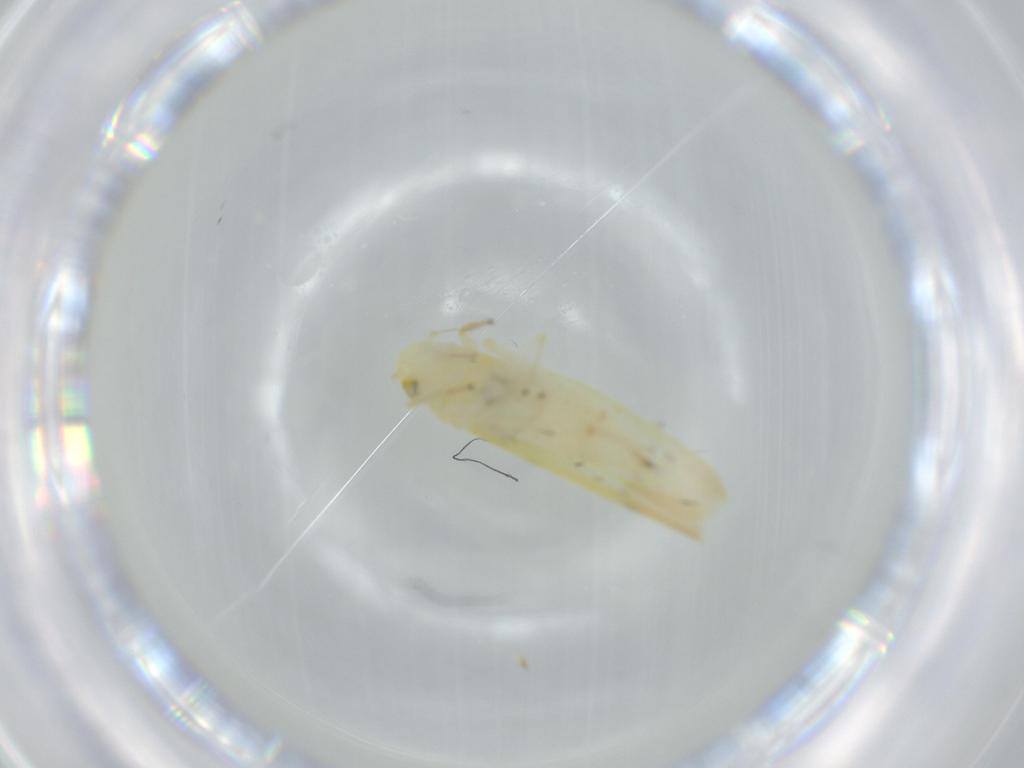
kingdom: Animalia
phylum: Arthropoda
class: Insecta
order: Hemiptera
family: Cicadellidae
